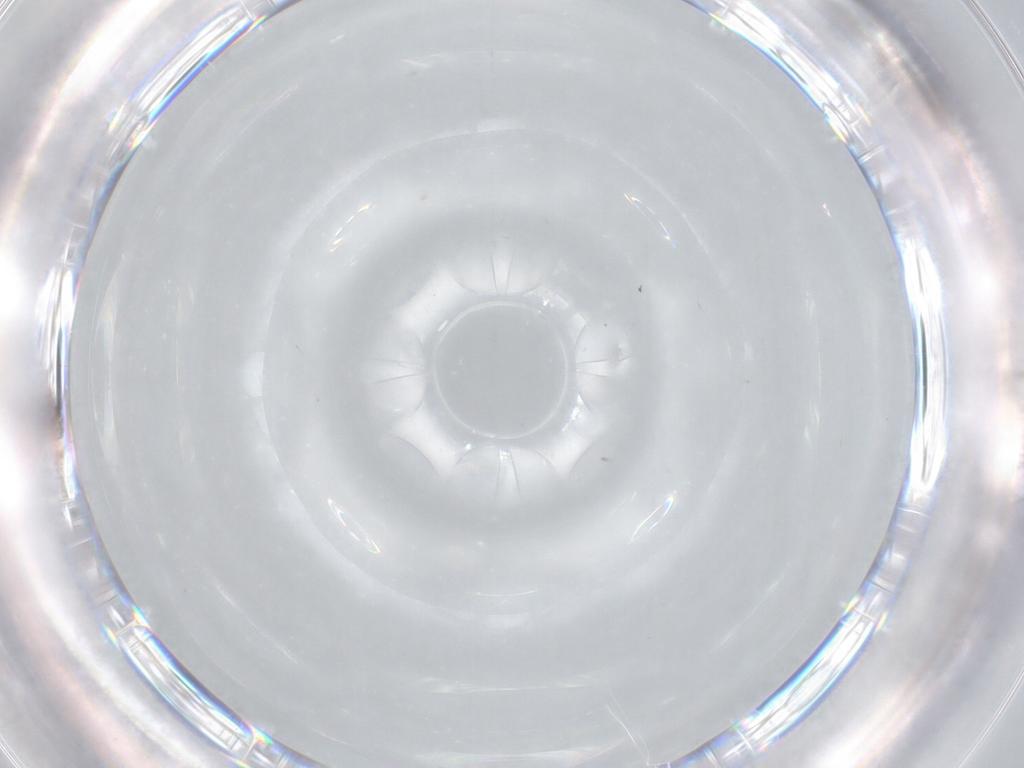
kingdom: Animalia
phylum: Arthropoda
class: Insecta
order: Hymenoptera
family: Trichogrammatidae
